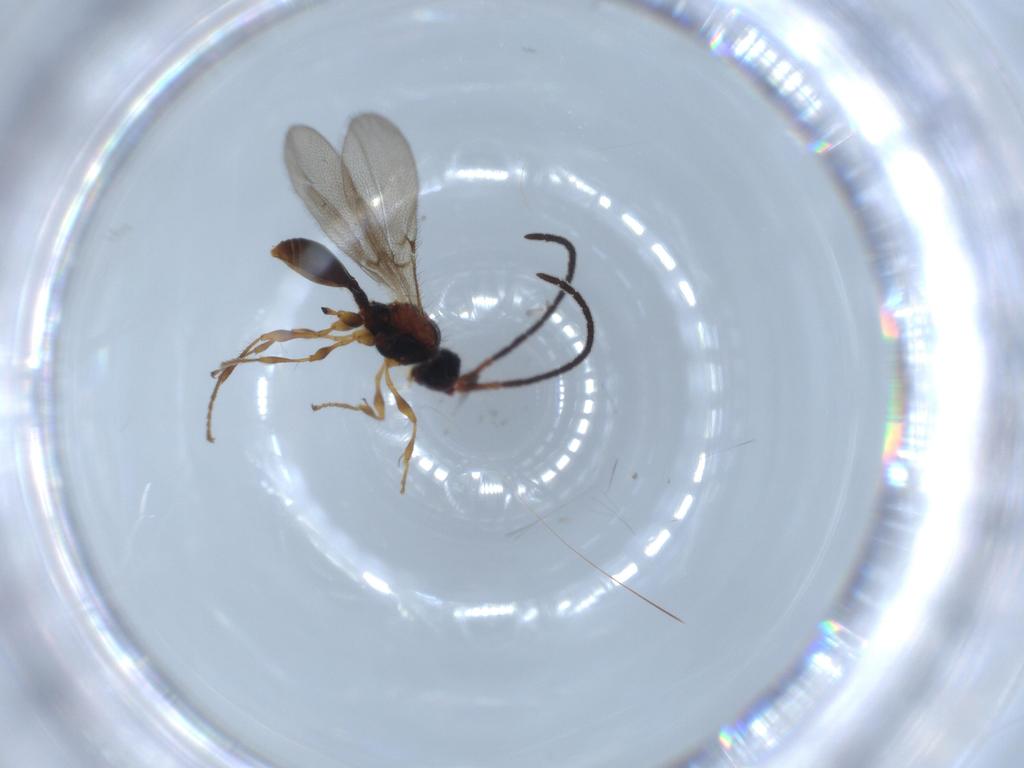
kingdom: Animalia
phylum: Arthropoda
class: Insecta
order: Hymenoptera
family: Diapriidae
